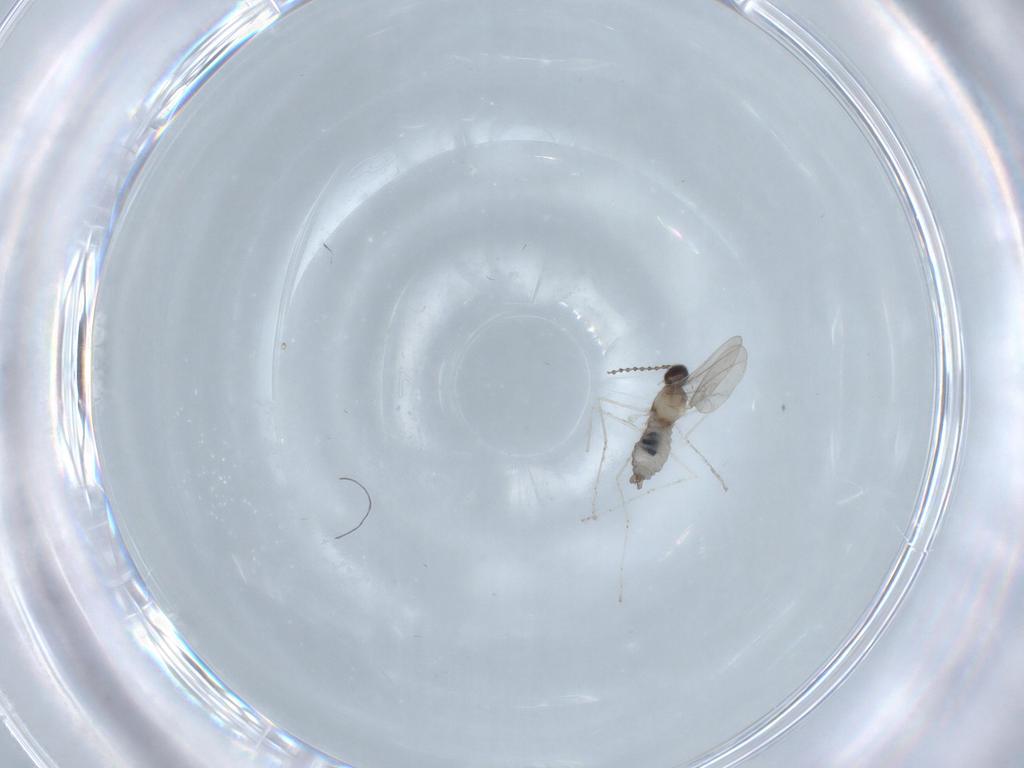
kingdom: Animalia
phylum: Arthropoda
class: Insecta
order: Diptera
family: Cecidomyiidae
